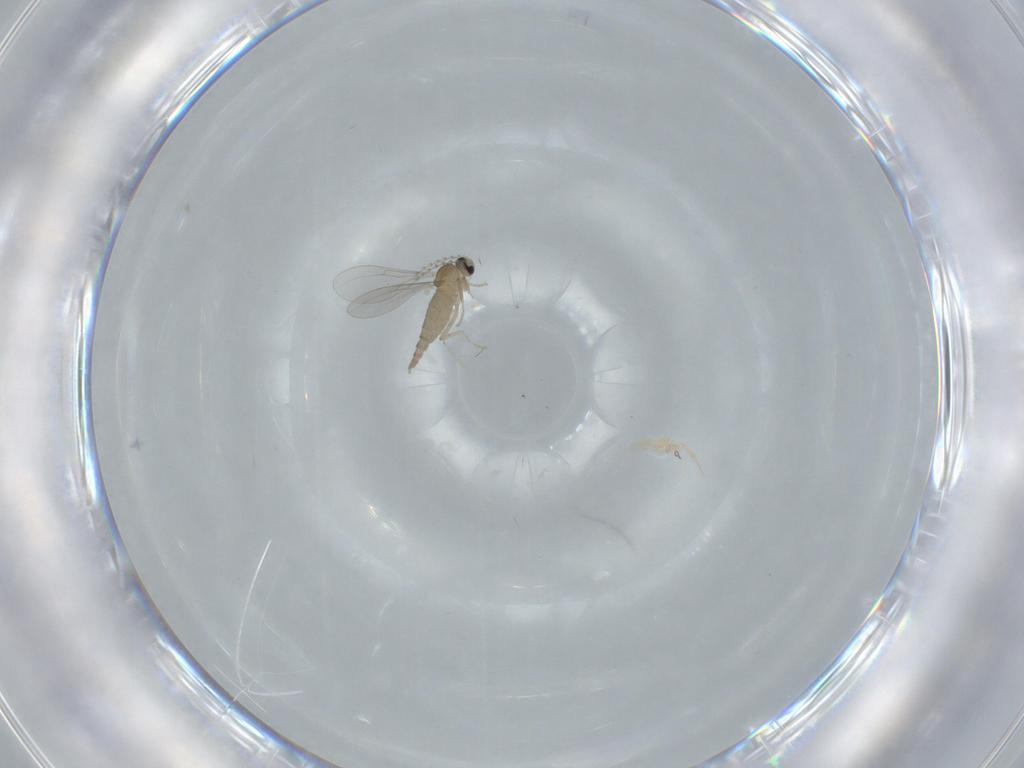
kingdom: Animalia
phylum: Arthropoda
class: Insecta
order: Diptera
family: Cecidomyiidae
